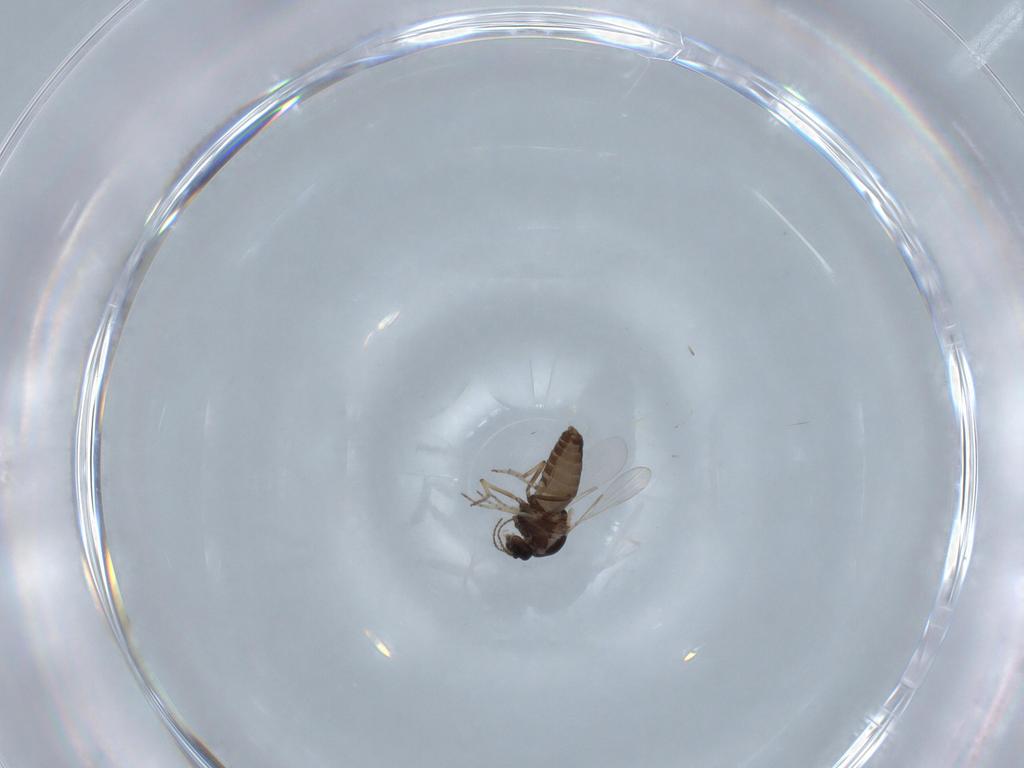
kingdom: Animalia
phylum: Arthropoda
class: Insecta
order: Diptera
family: Ceratopogonidae
